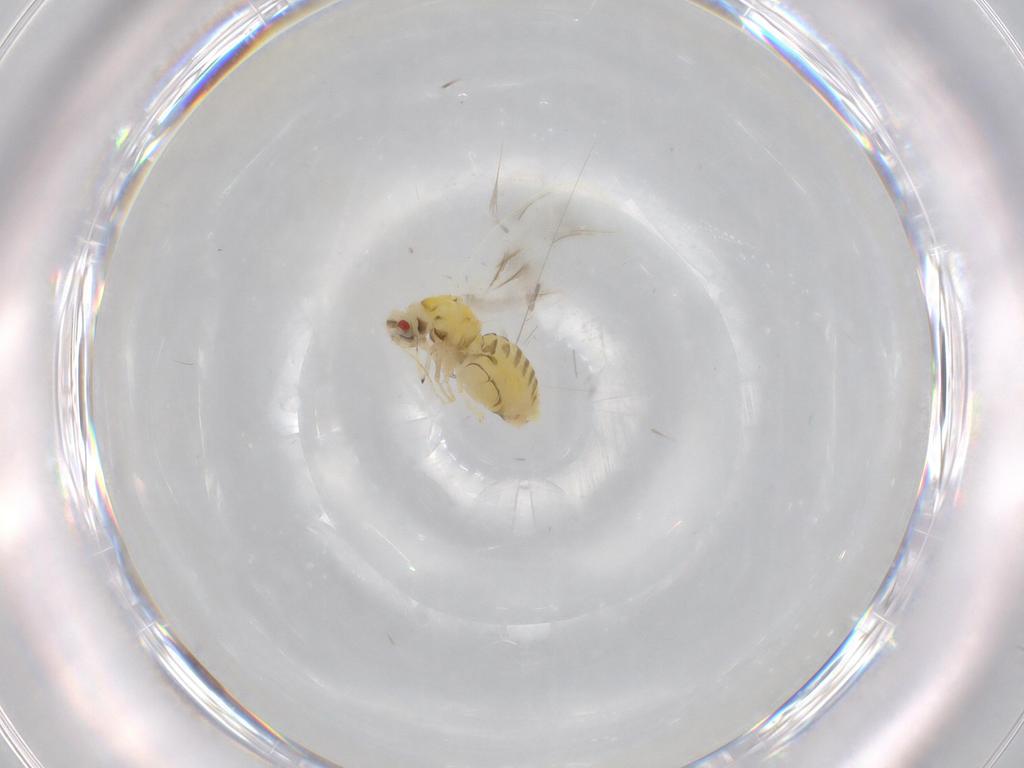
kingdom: Animalia
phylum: Arthropoda
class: Insecta
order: Hemiptera
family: Aleyrodidae
